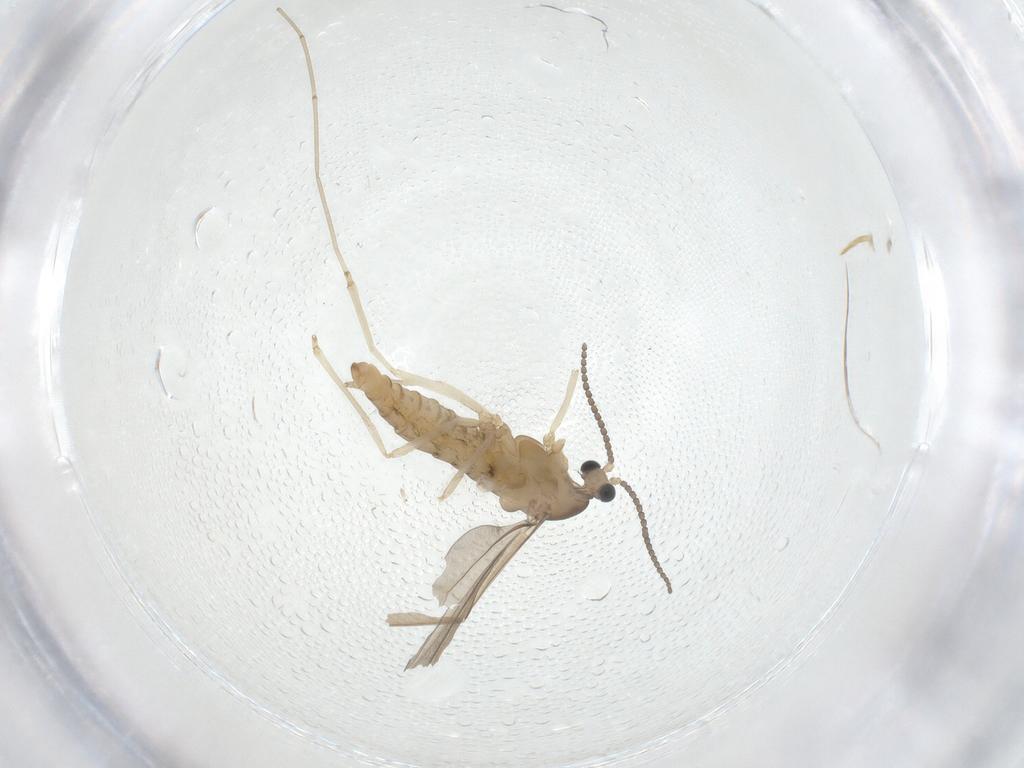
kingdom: Animalia
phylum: Arthropoda
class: Insecta
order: Diptera
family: Cecidomyiidae
